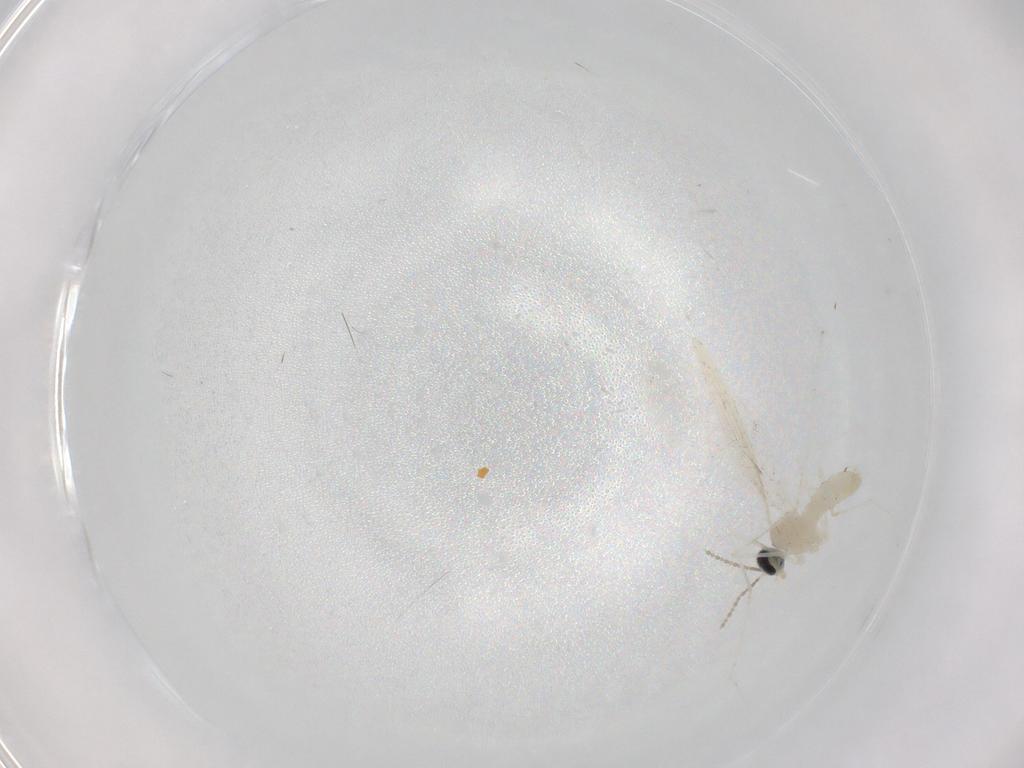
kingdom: Animalia
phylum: Arthropoda
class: Insecta
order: Diptera
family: Cecidomyiidae
